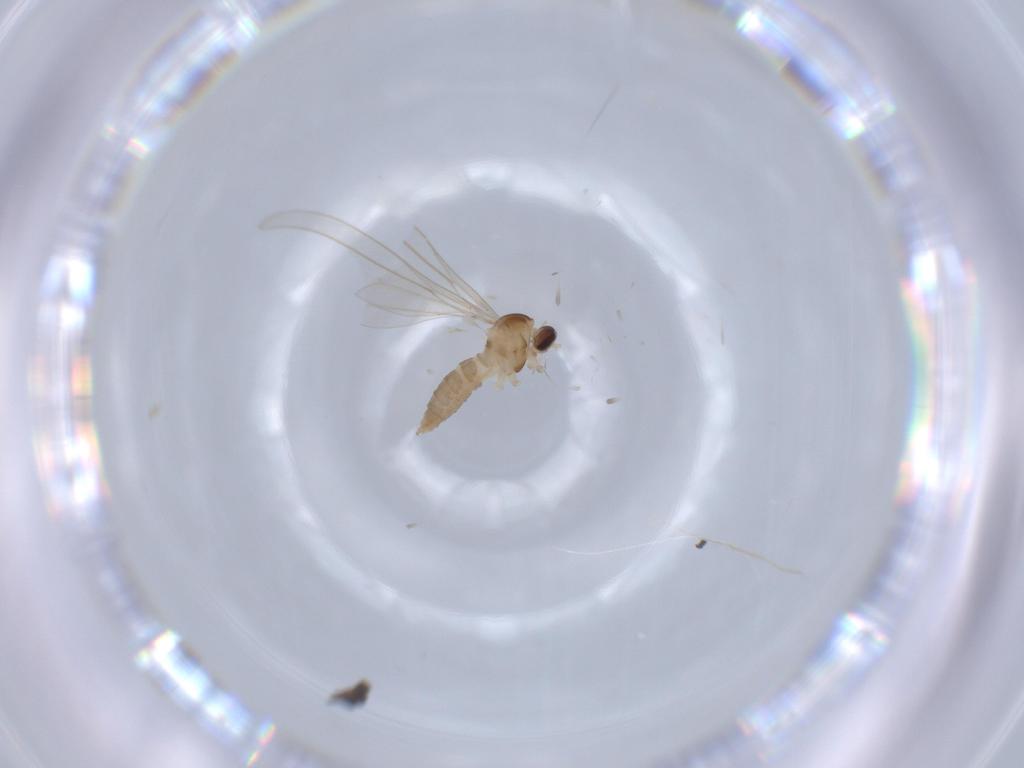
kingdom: Animalia
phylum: Arthropoda
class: Insecta
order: Diptera
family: Cecidomyiidae
